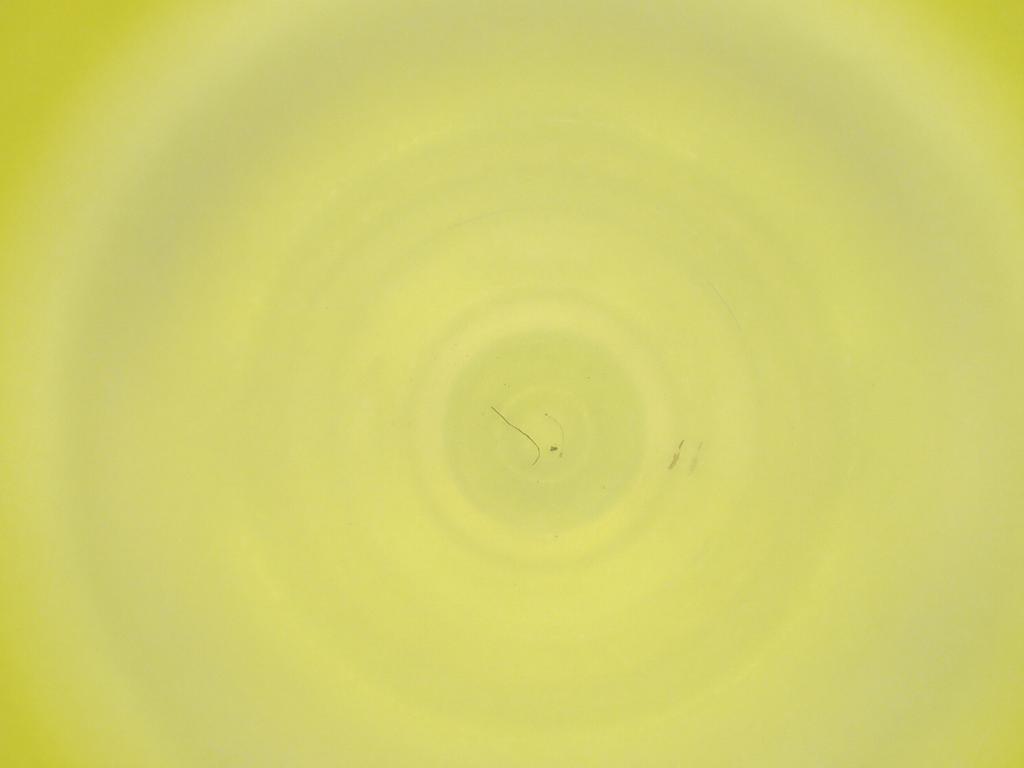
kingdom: Animalia
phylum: Arthropoda
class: Insecta
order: Diptera
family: Cecidomyiidae
